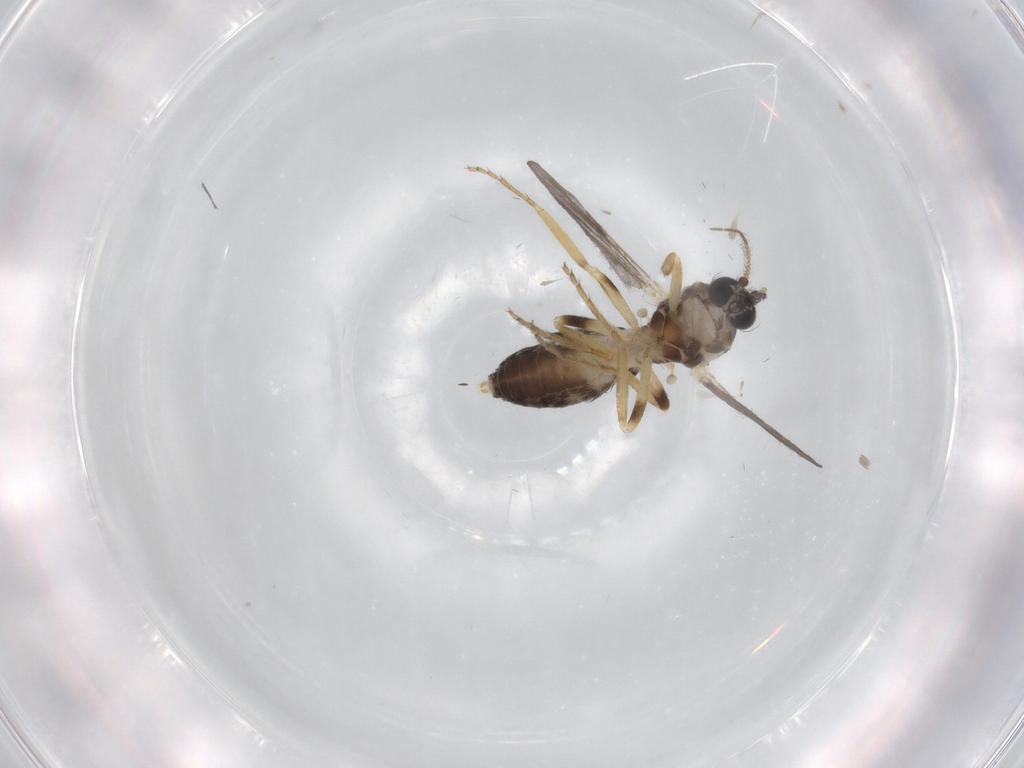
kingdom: Animalia
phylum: Arthropoda
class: Insecta
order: Diptera
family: Ceratopogonidae
